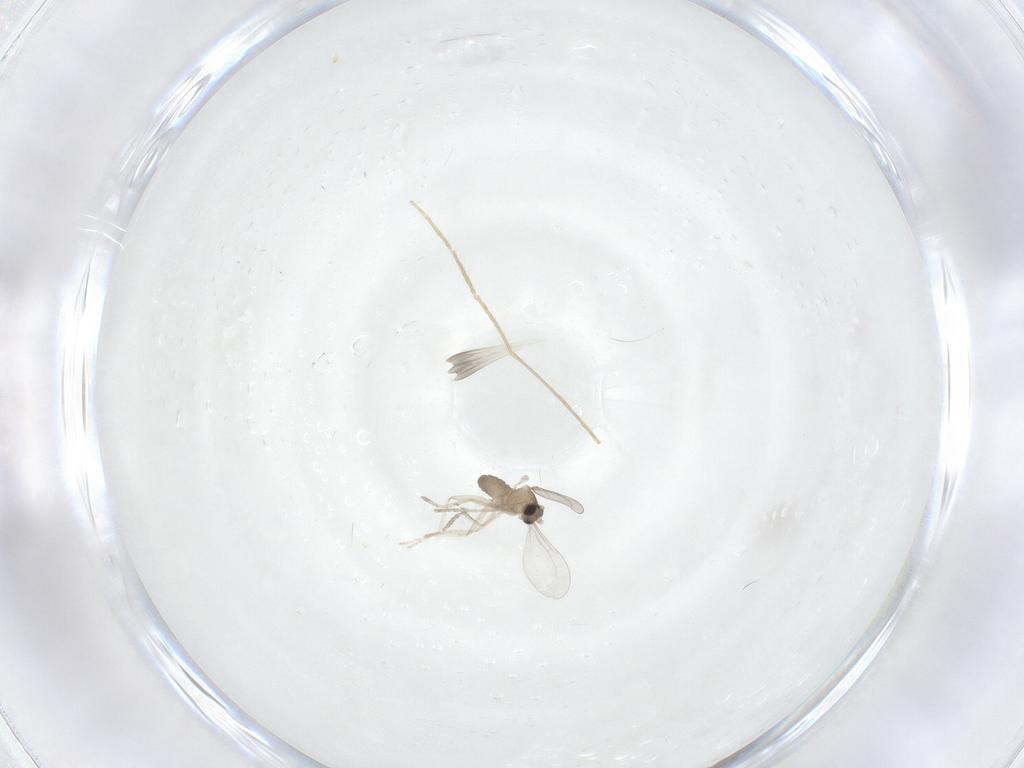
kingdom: Animalia
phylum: Arthropoda
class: Insecta
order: Diptera
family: Cecidomyiidae
